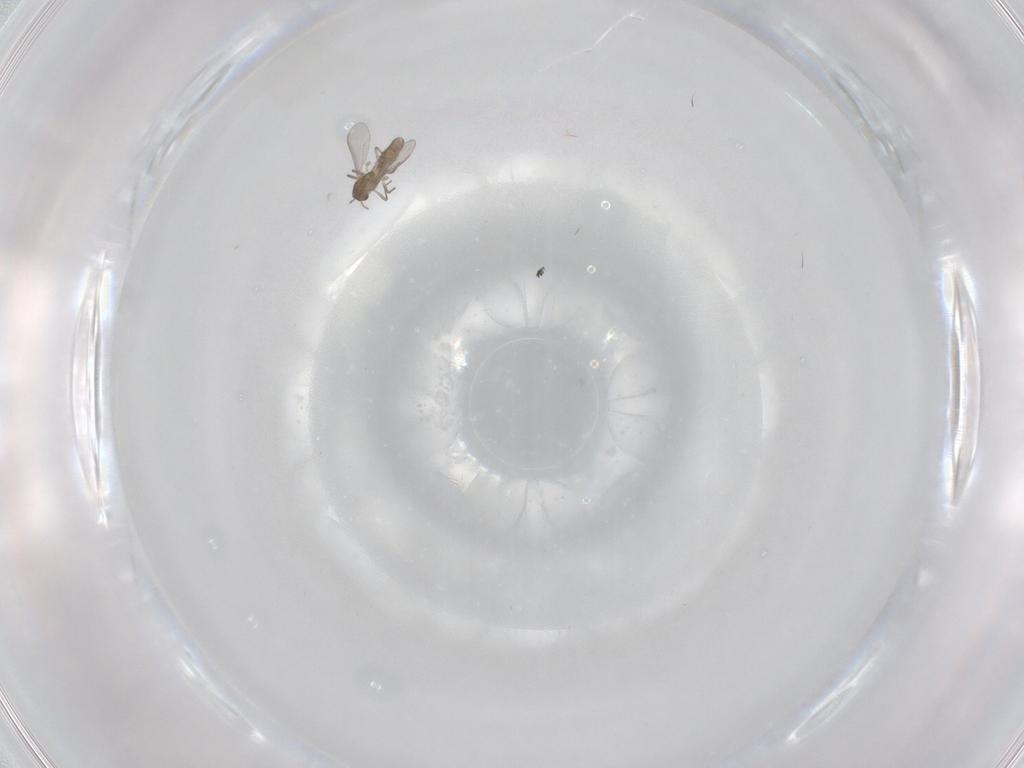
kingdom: Animalia
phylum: Arthropoda
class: Insecta
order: Diptera
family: Chironomidae
